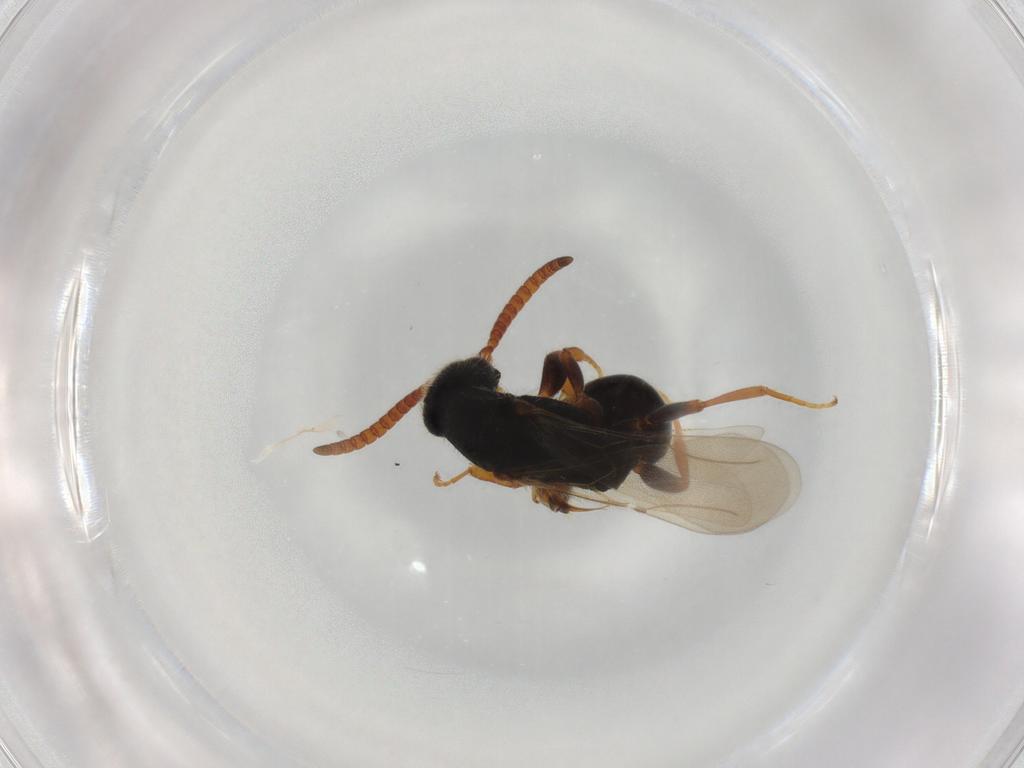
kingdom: Animalia
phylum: Arthropoda
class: Insecta
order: Hymenoptera
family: Bethylidae
